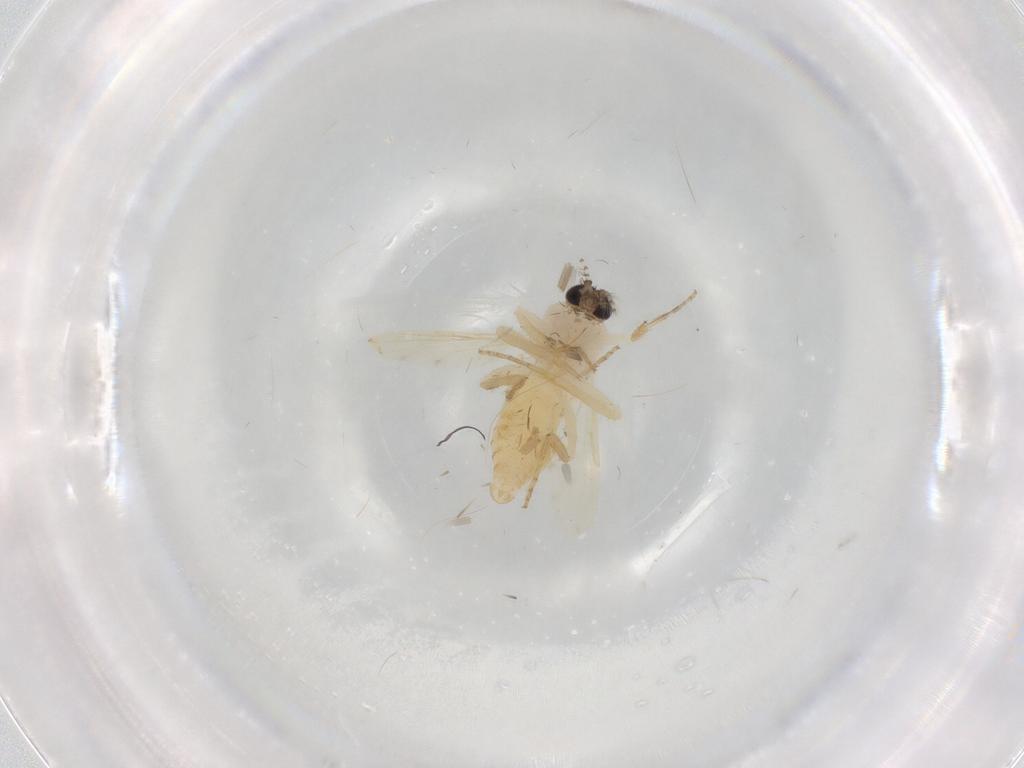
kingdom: Animalia
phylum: Arthropoda
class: Insecta
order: Diptera
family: Ceratopogonidae
